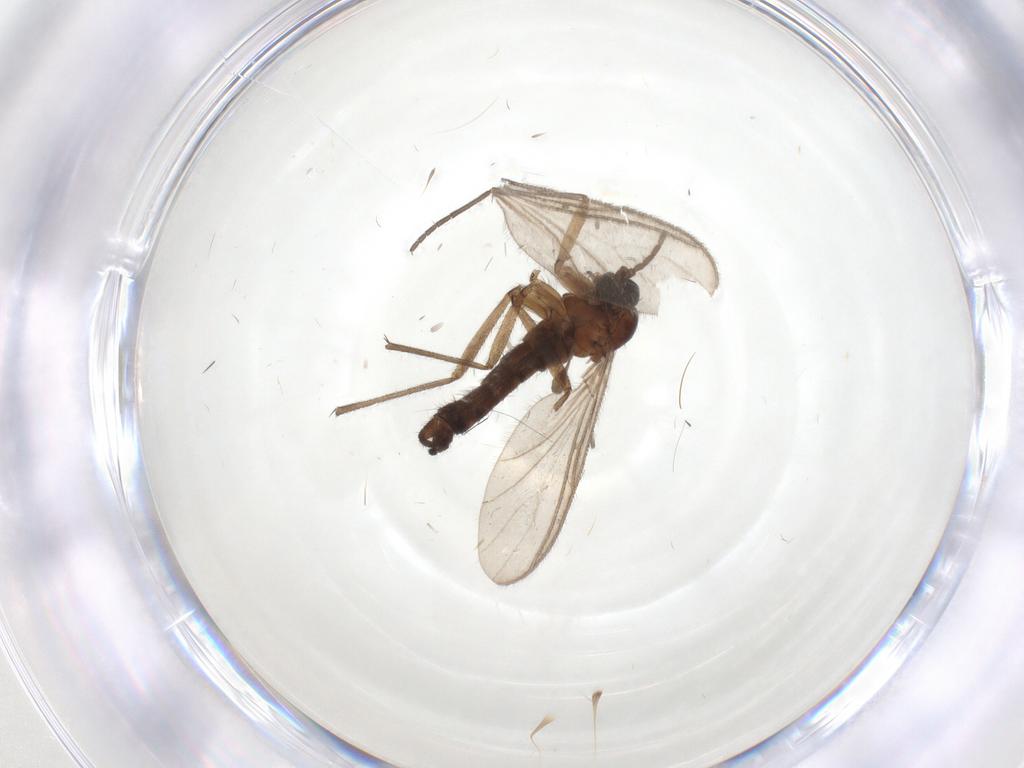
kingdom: Animalia
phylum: Arthropoda
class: Insecta
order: Diptera
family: Sciaridae
